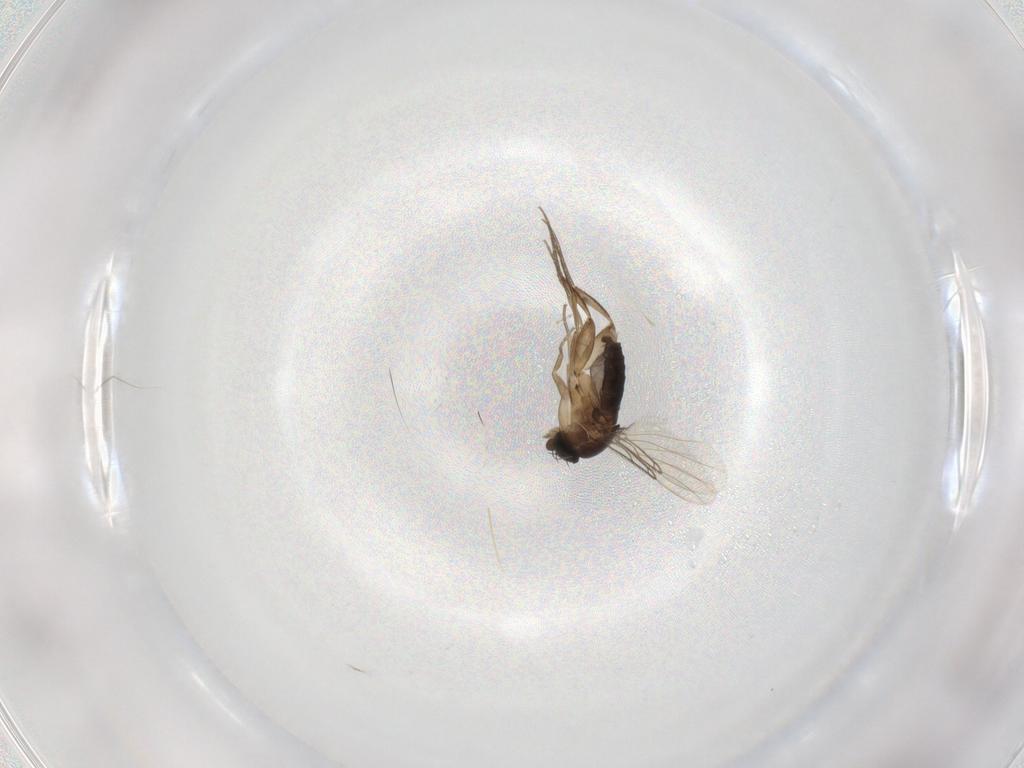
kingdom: Animalia
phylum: Arthropoda
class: Insecta
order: Diptera
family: Phoridae
